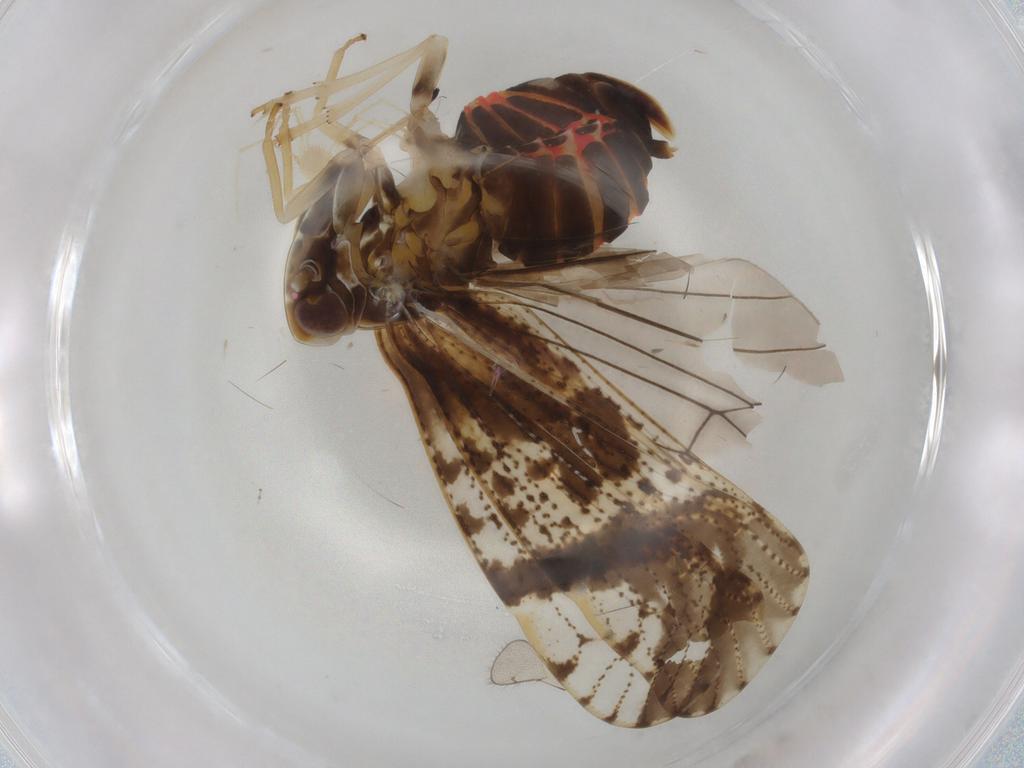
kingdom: Animalia
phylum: Arthropoda
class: Insecta
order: Hemiptera
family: Cixiidae
